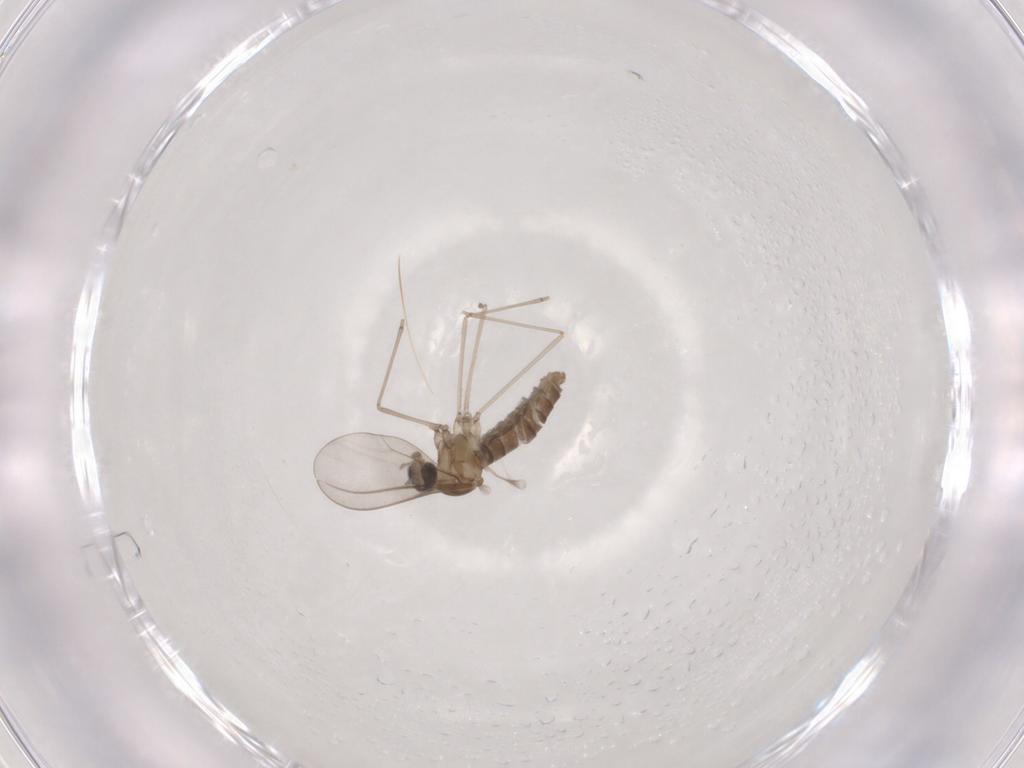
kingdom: Animalia
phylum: Arthropoda
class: Insecta
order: Diptera
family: Cecidomyiidae
